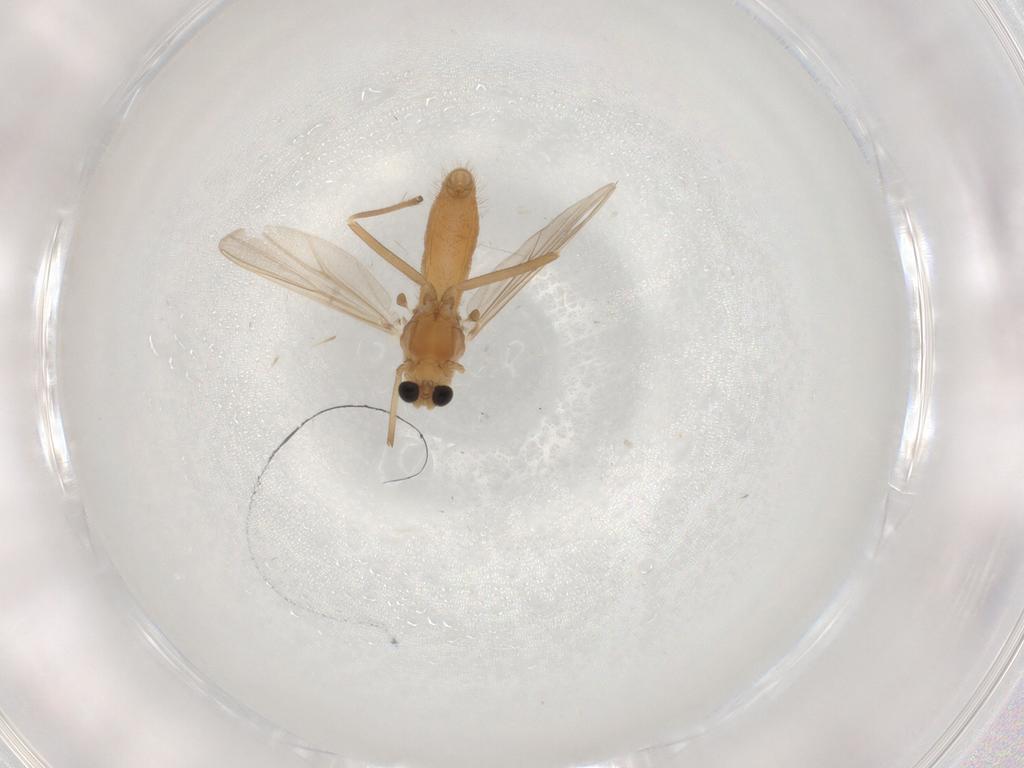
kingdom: Animalia
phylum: Arthropoda
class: Insecta
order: Diptera
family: Chironomidae
